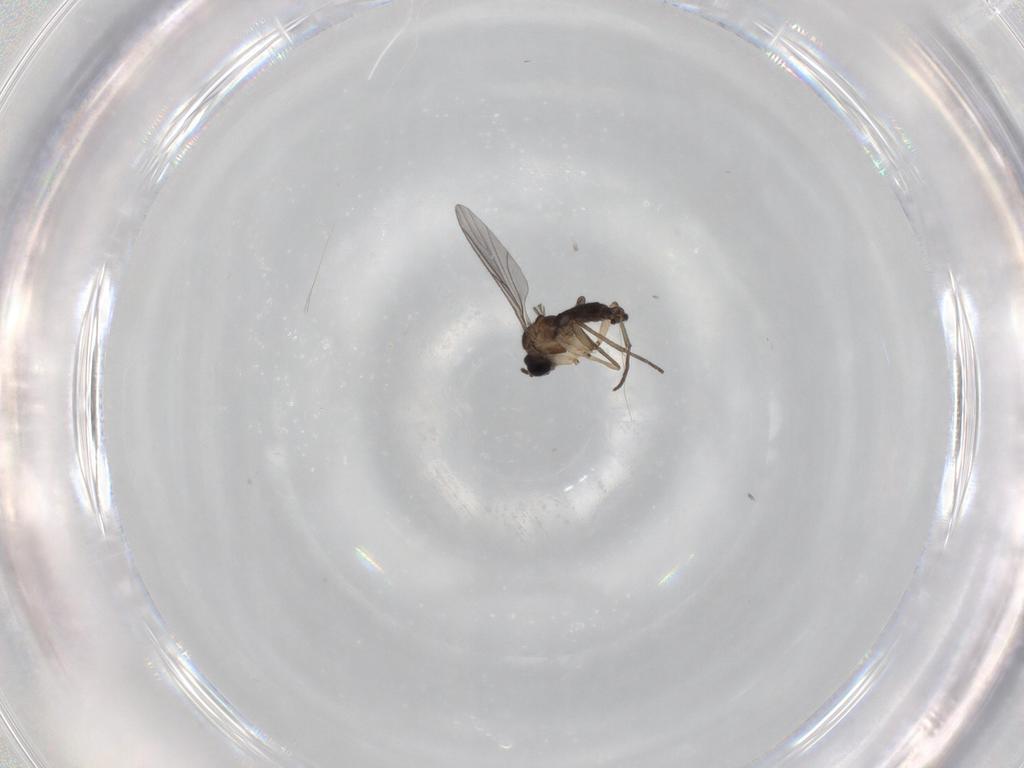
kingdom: Animalia
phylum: Arthropoda
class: Insecta
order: Diptera
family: Sciaridae
